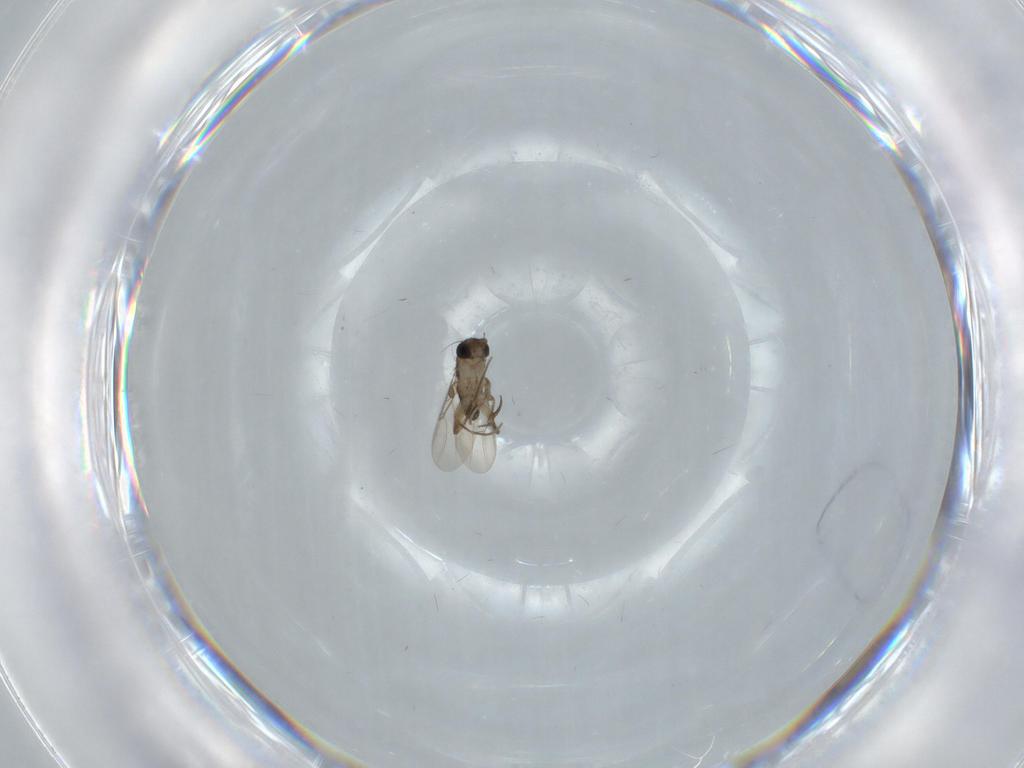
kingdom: Animalia
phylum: Arthropoda
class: Insecta
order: Diptera
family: Phoridae
